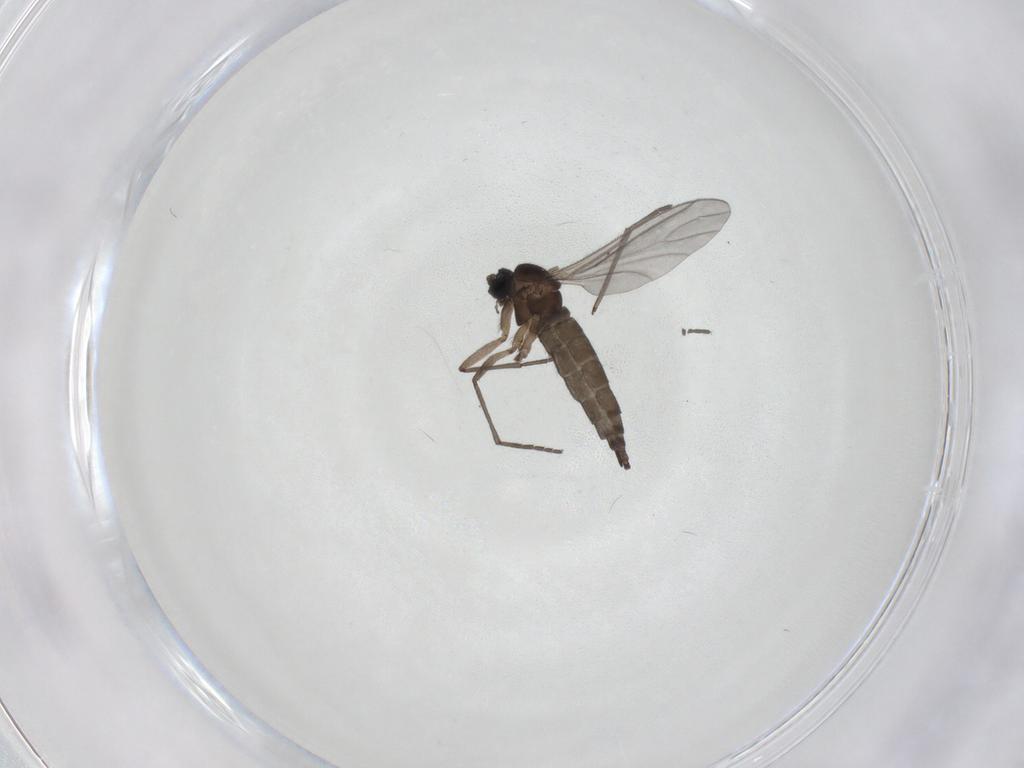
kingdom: Animalia
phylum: Arthropoda
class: Insecta
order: Diptera
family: Sciaridae
